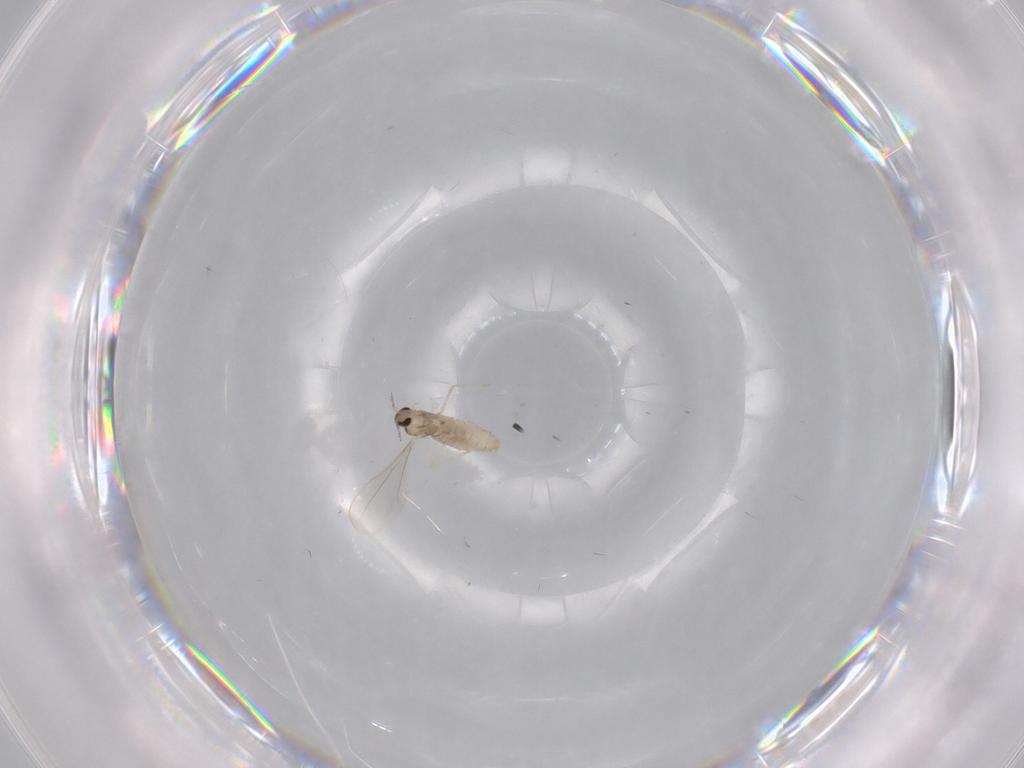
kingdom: Animalia
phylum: Arthropoda
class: Insecta
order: Diptera
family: Cecidomyiidae
